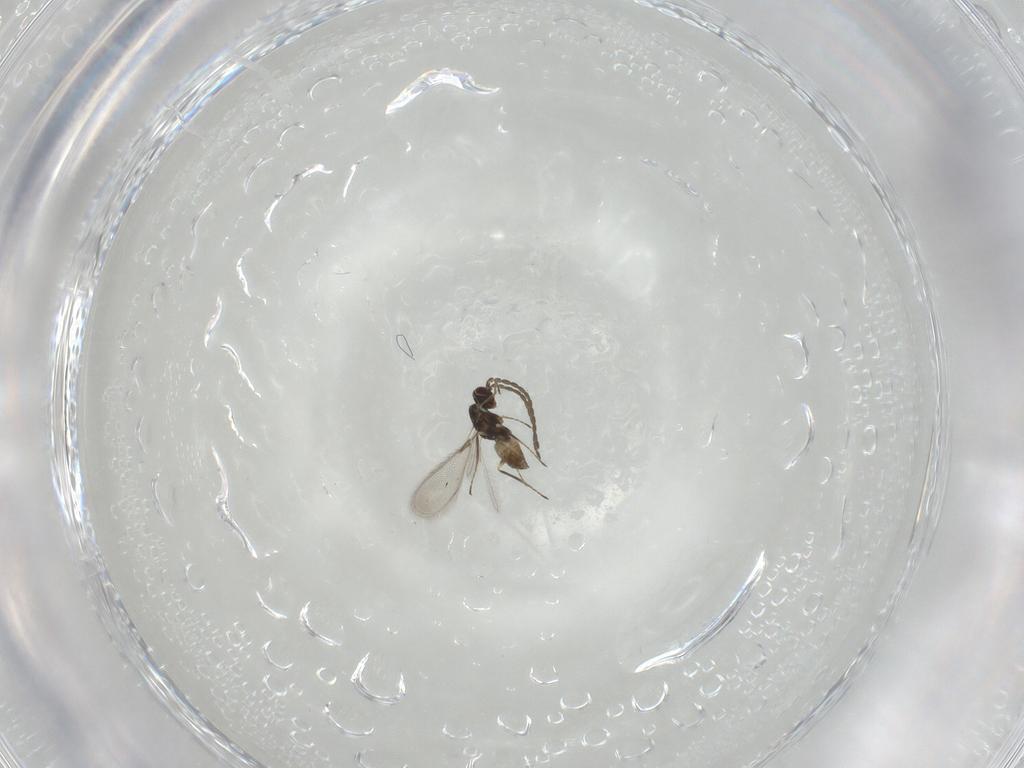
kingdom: Animalia
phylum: Arthropoda
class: Insecta
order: Hymenoptera
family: Mymaridae
